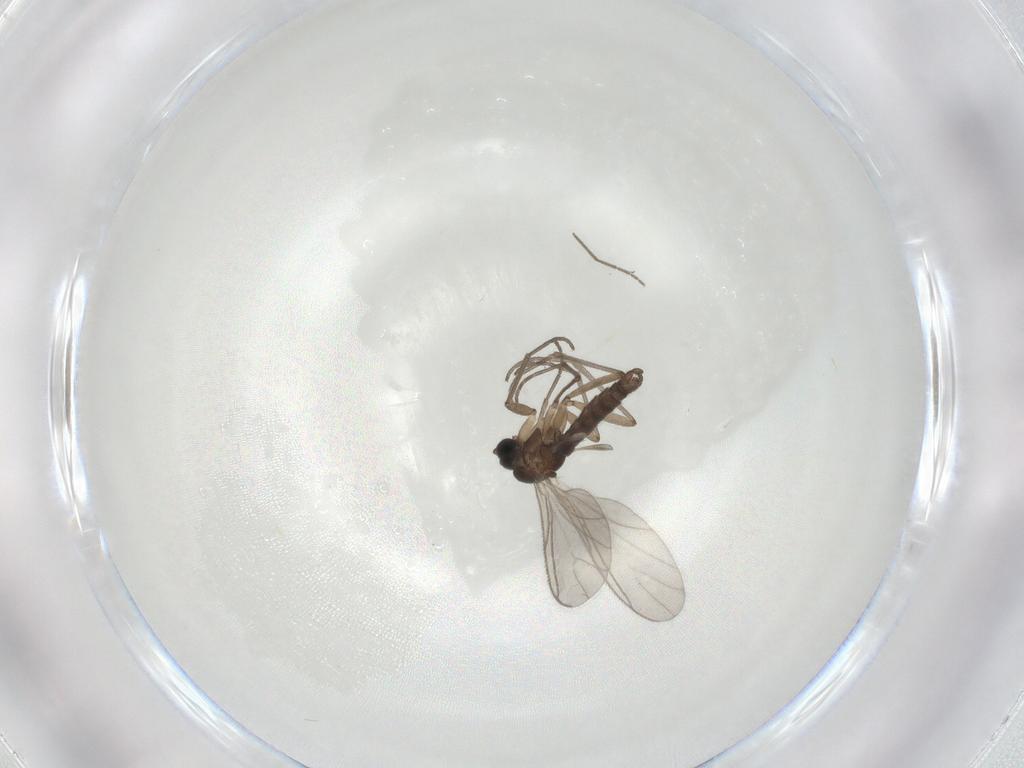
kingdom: Animalia
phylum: Arthropoda
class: Insecta
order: Diptera
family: Sciaridae
